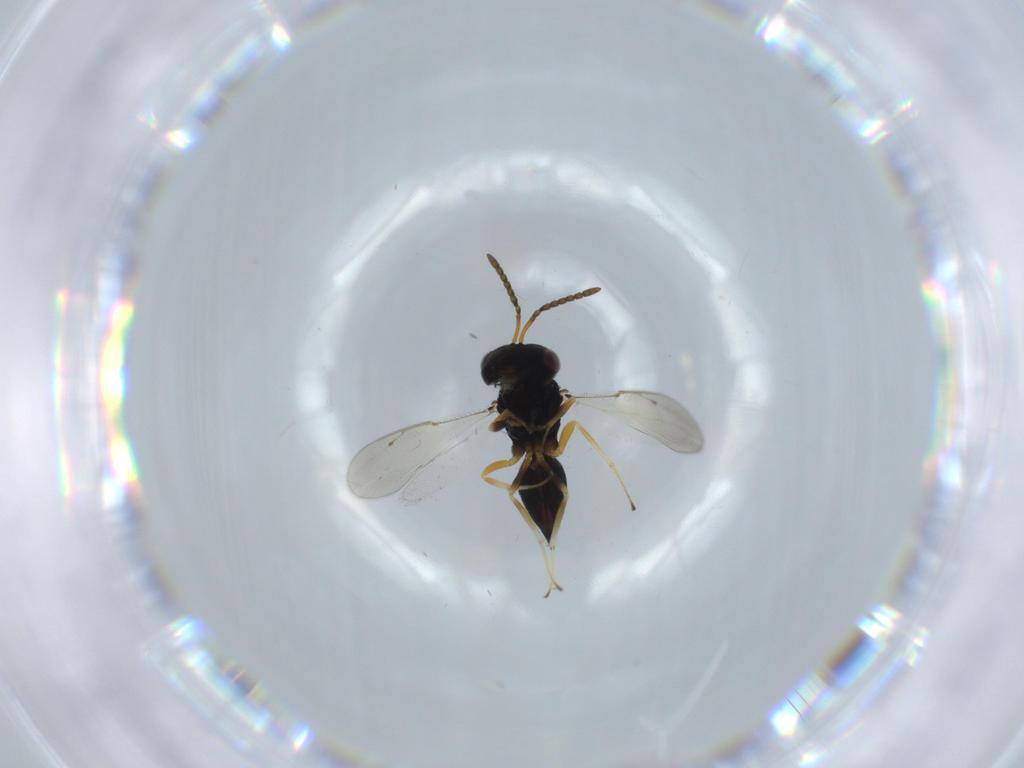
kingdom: Animalia
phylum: Arthropoda
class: Insecta
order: Hymenoptera
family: Pteromalidae
